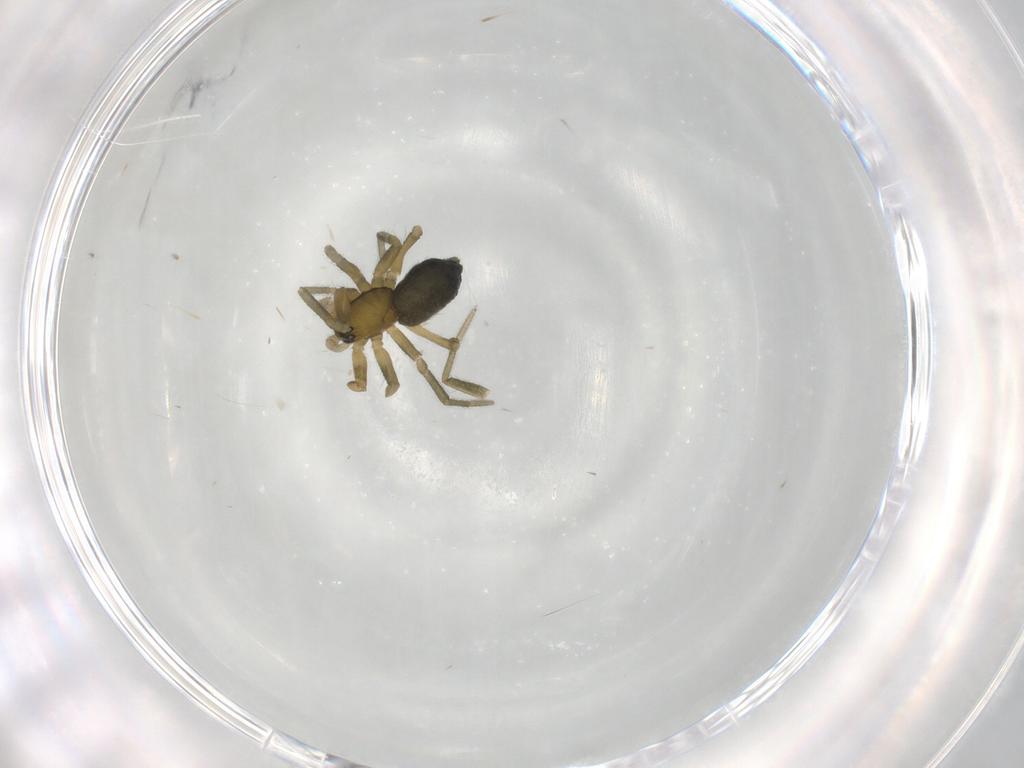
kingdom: Animalia
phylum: Arthropoda
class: Arachnida
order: Araneae
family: Linyphiidae
